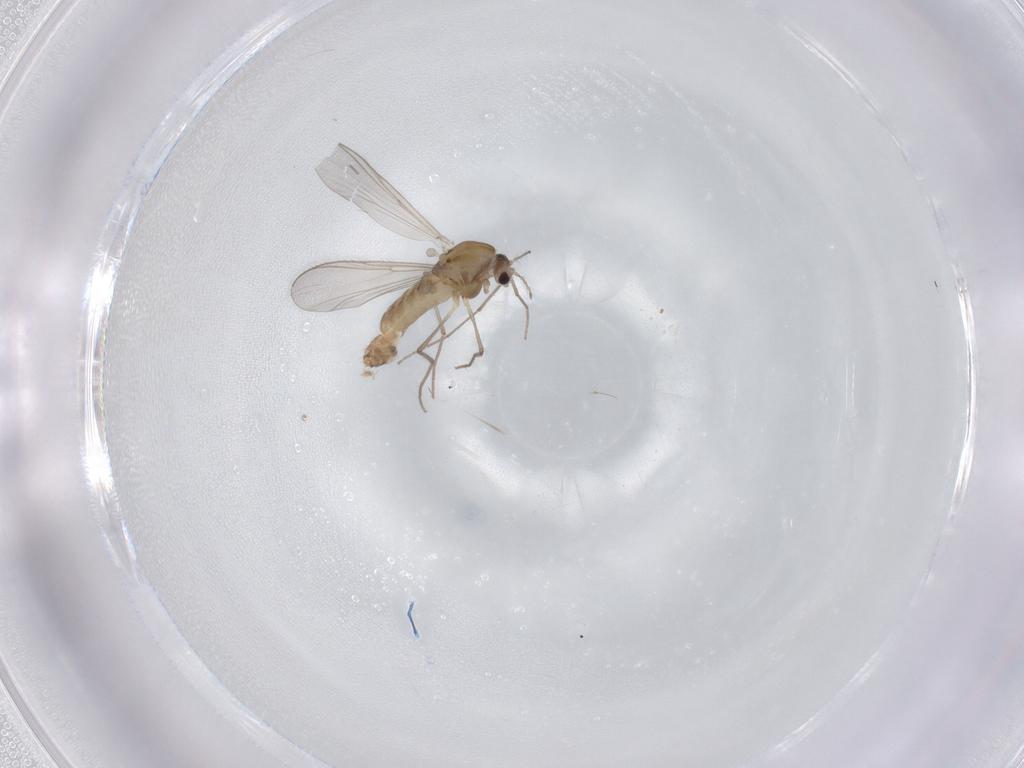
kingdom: Animalia
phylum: Arthropoda
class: Insecta
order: Diptera
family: Chironomidae
